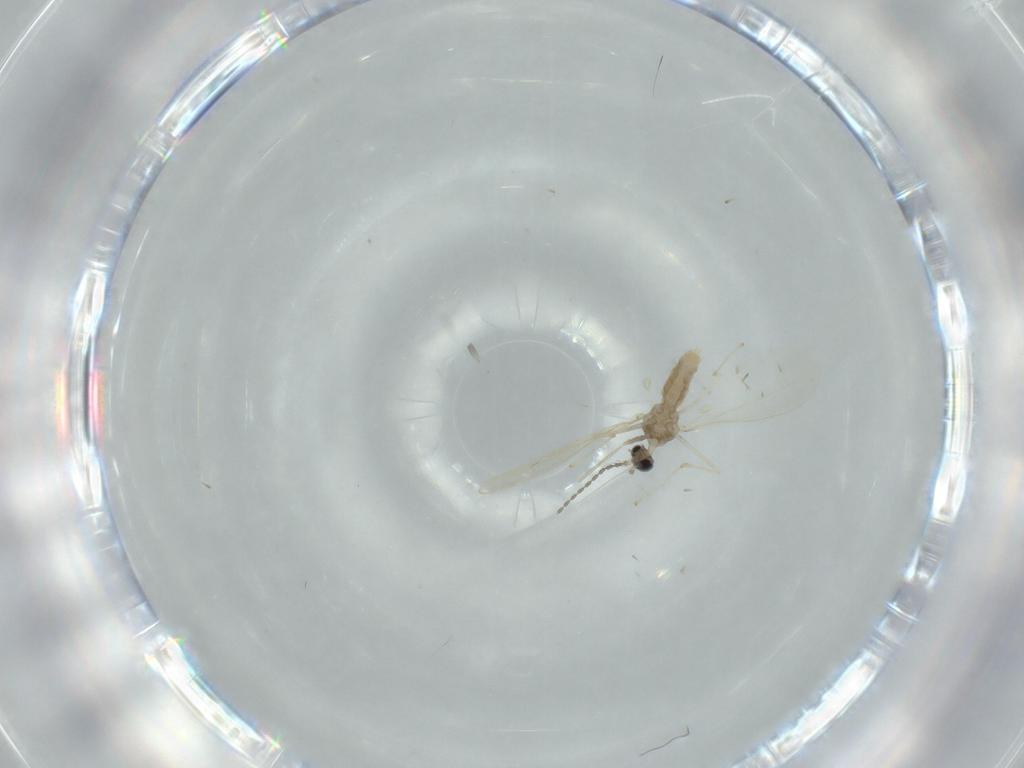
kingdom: Animalia
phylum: Arthropoda
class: Insecta
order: Diptera
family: Cecidomyiidae
